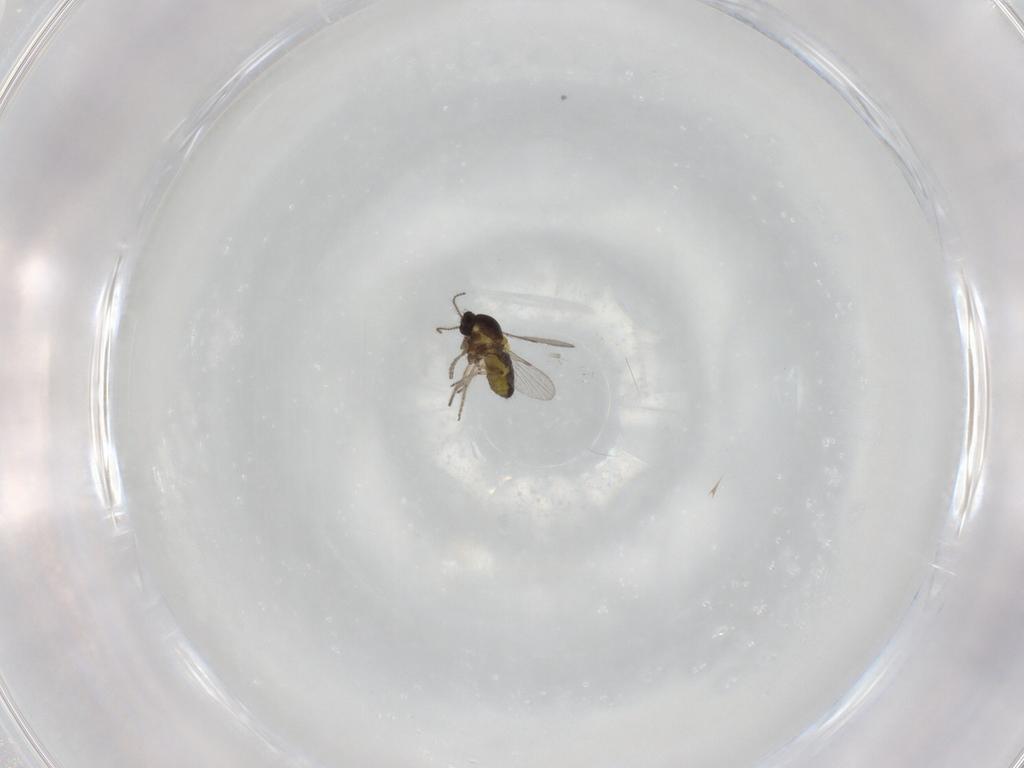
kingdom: Animalia
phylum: Arthropoda
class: Insecta
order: Diptera
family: Ceratopogonidae
